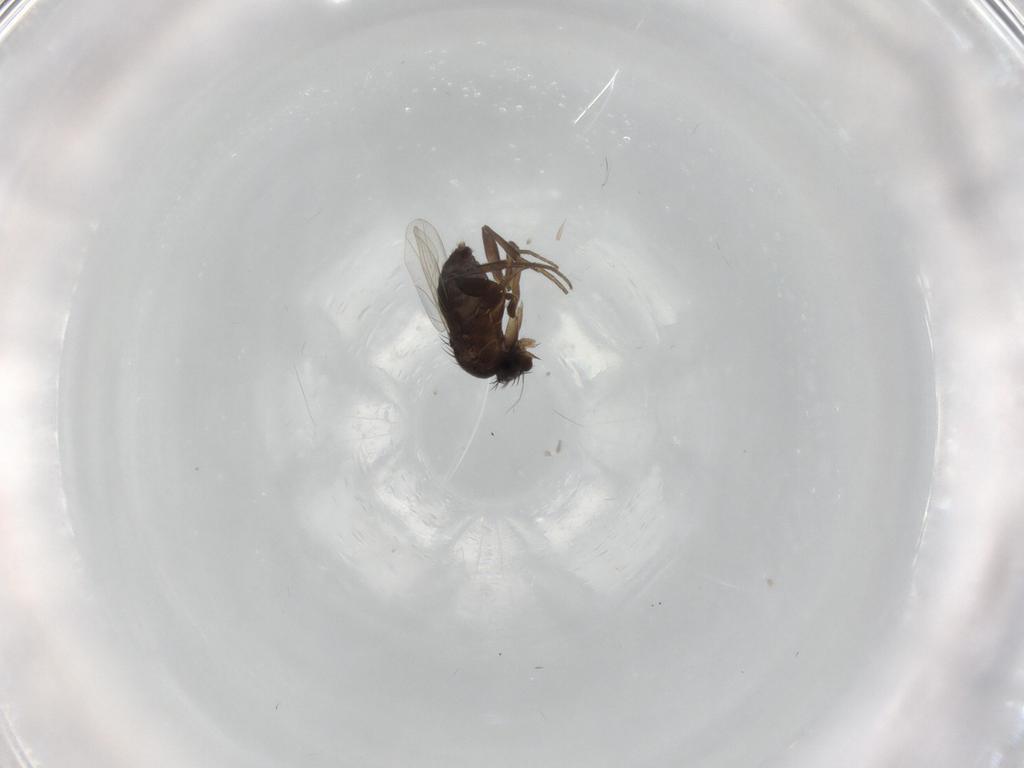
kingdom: Animalia
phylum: Arthropoda
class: Insecta
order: Diptera
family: Phoridae
